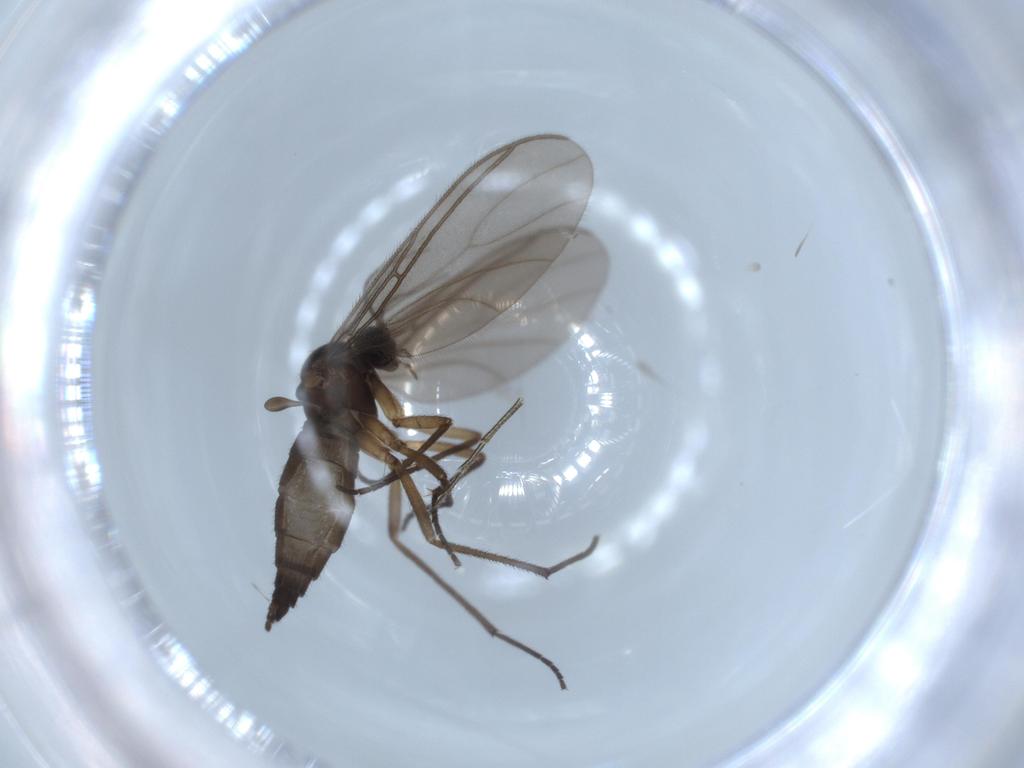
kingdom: Animalia
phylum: Arthropoda
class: Insecta
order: Diptera
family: Sciaridae
